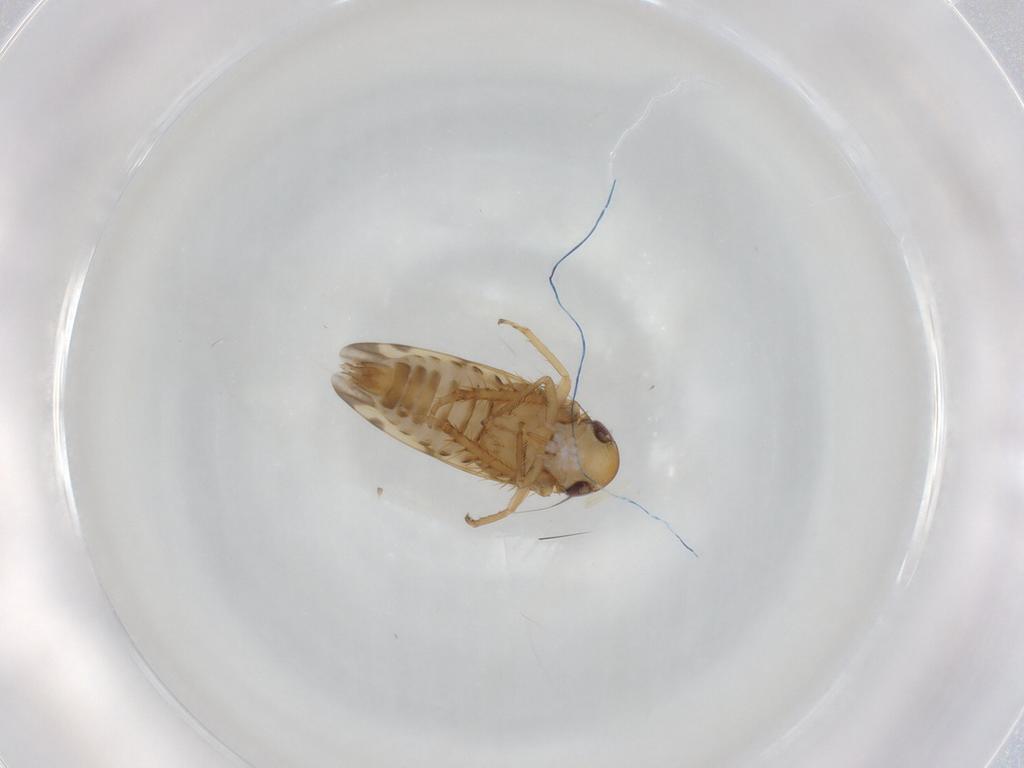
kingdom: Animalia
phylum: Arthropoda
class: Insecta
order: Hemiptera
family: Cicadellidae
